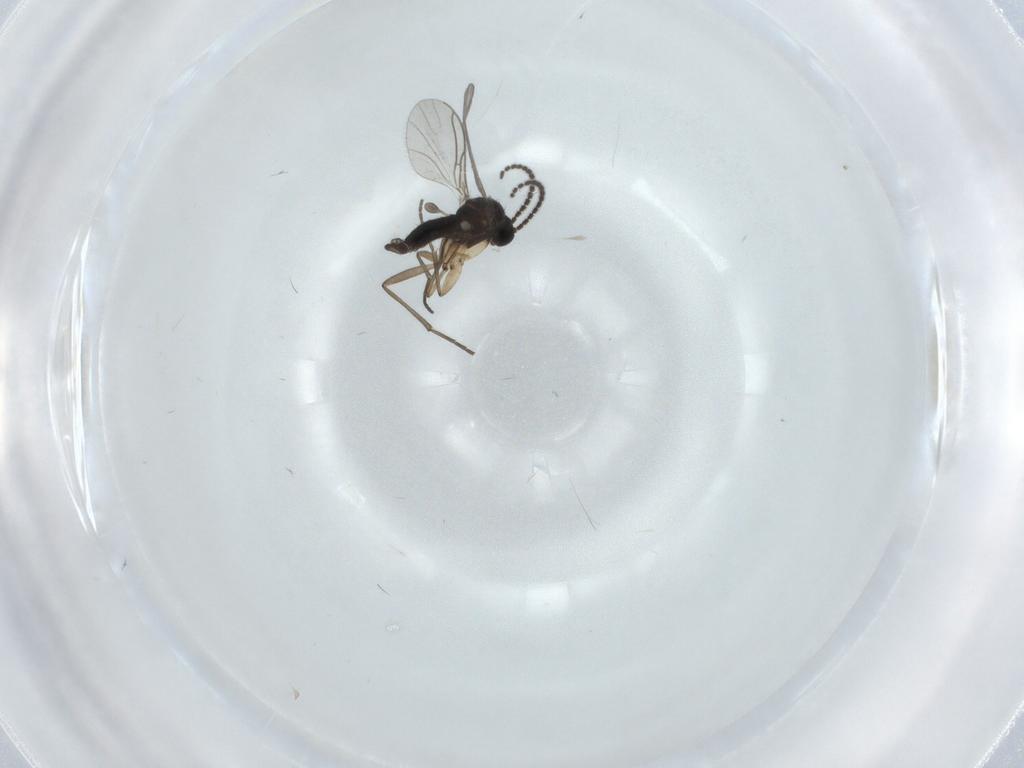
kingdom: Animalia
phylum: Arthropoda
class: Insecta
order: Diptera
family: Sciaridae
